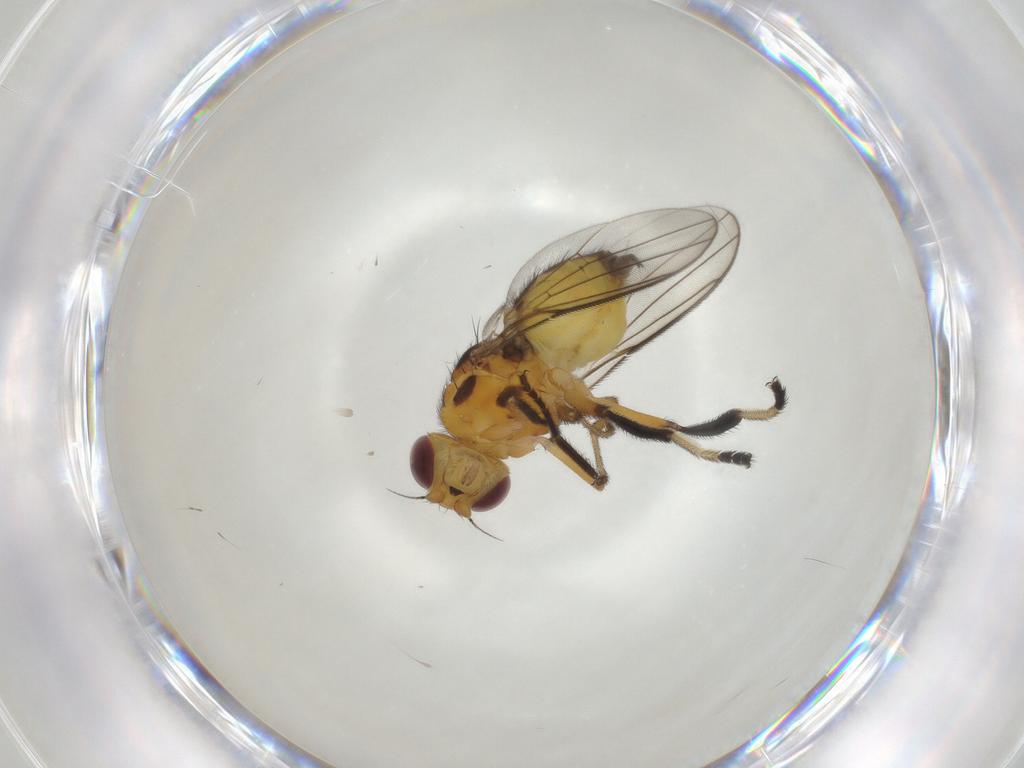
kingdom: Animalia
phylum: Arthropoda
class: Insecta
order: Diptera
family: Chloropidae
